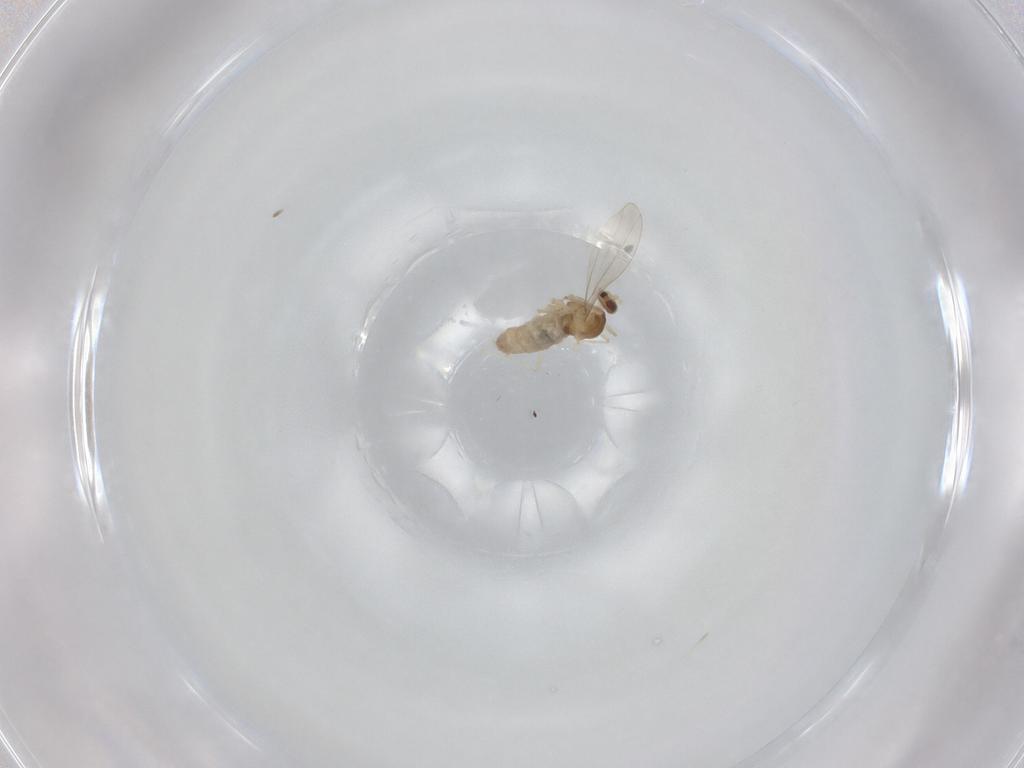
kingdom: Animalia
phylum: Arthropoda
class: Insecta
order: Diptera
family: Cecidomyiidae
